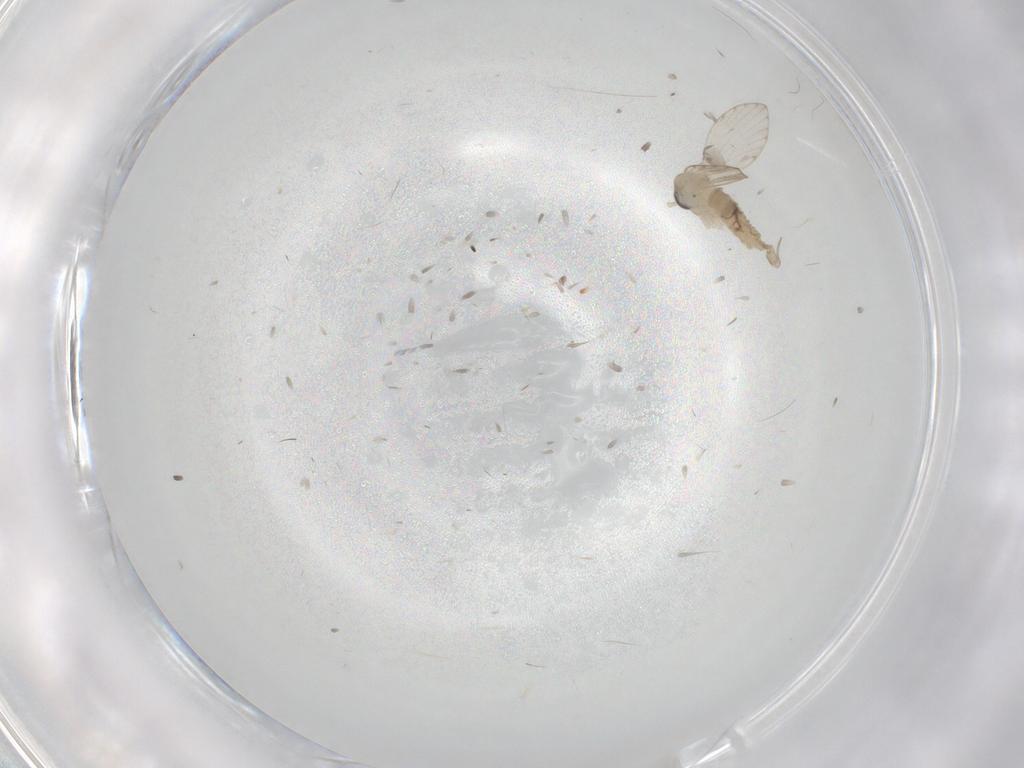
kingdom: Animalia
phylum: Arthropoda
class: Insecta
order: Diptera
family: Psychodidae
